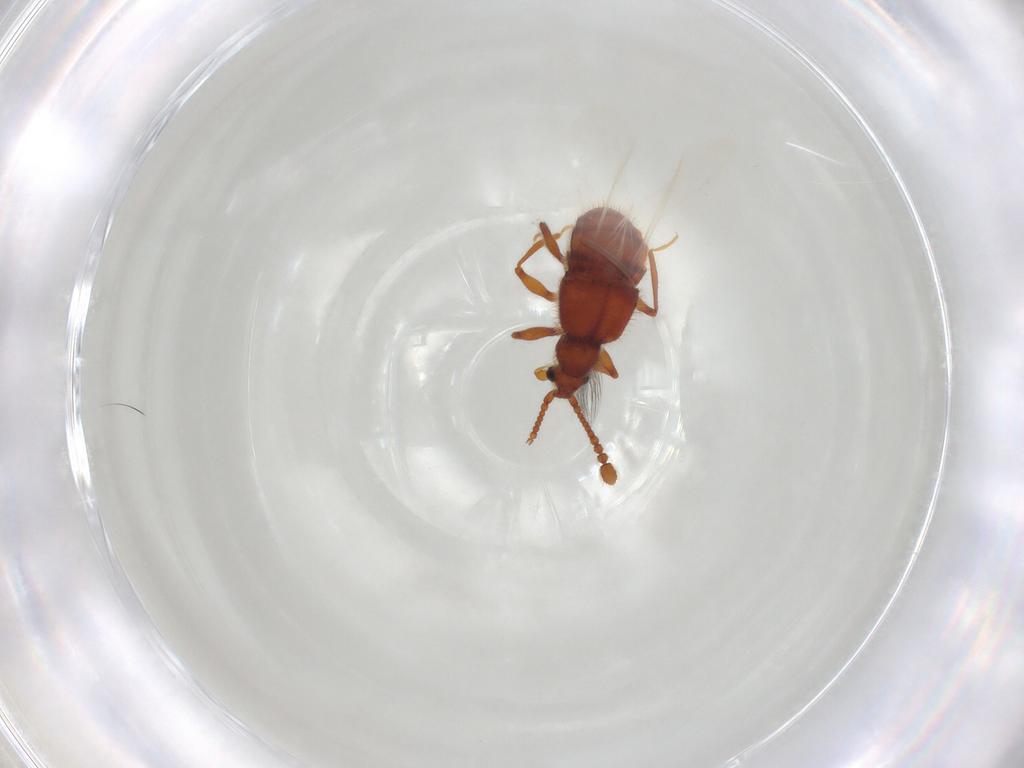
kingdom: Animalia
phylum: Arthropoda
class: Insecta
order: Coleoptera
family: Staphylinidae
